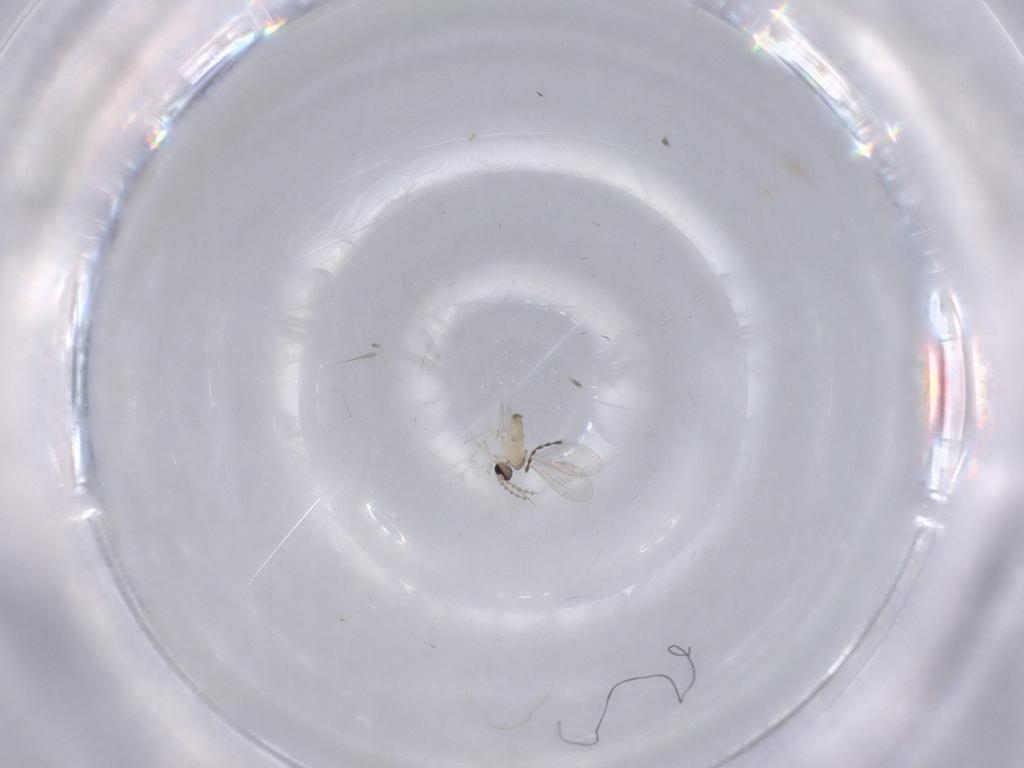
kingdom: Animalia
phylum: Arthropoda
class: Insecta
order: Diptera
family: Cecidomyiidae
